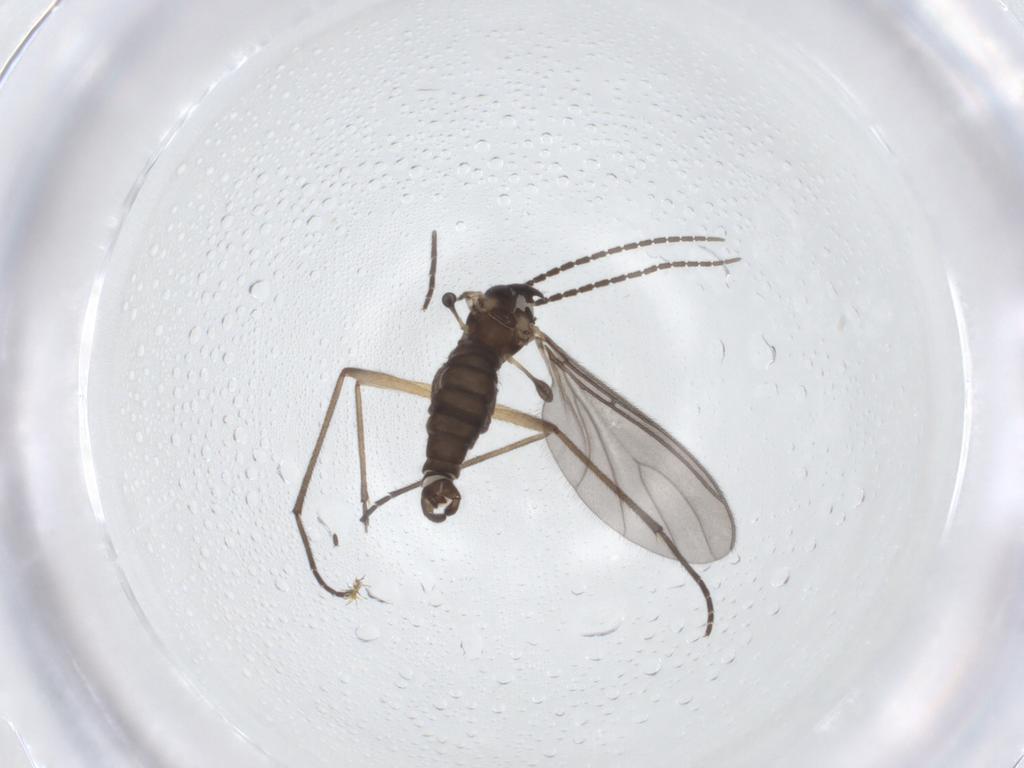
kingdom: Animalia
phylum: Arthropoda
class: Insecta
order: Diptera
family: Sciaridae
